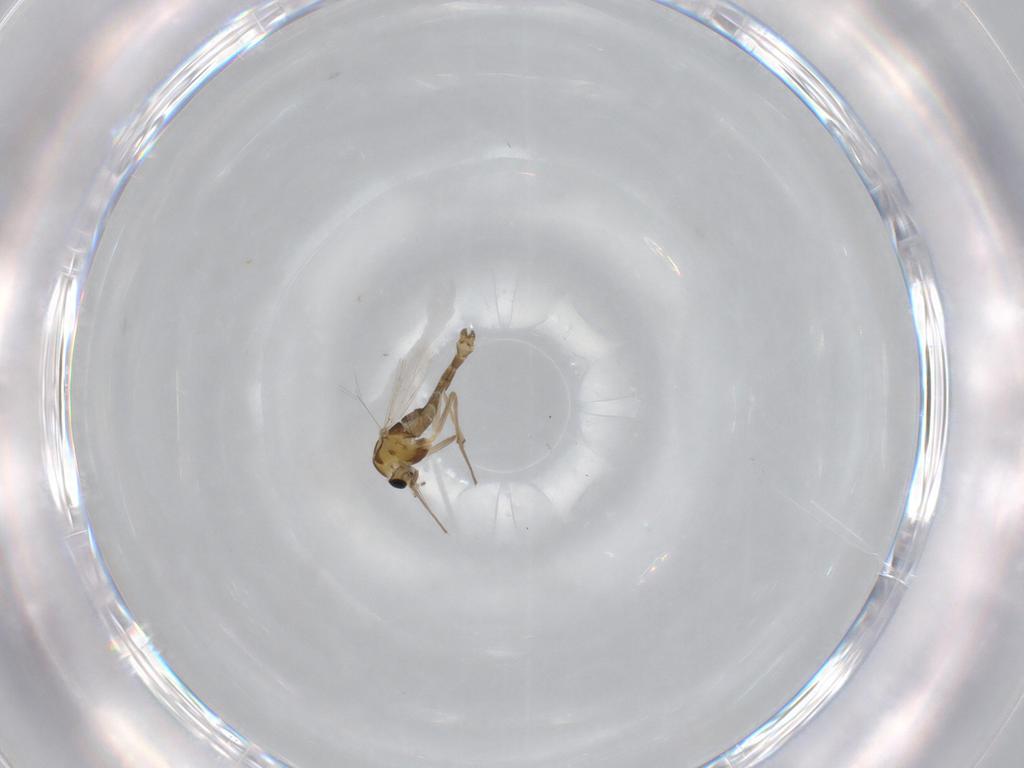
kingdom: Animalia
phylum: Arthropoda
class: Insecta
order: Diptera
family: Chironomidae
